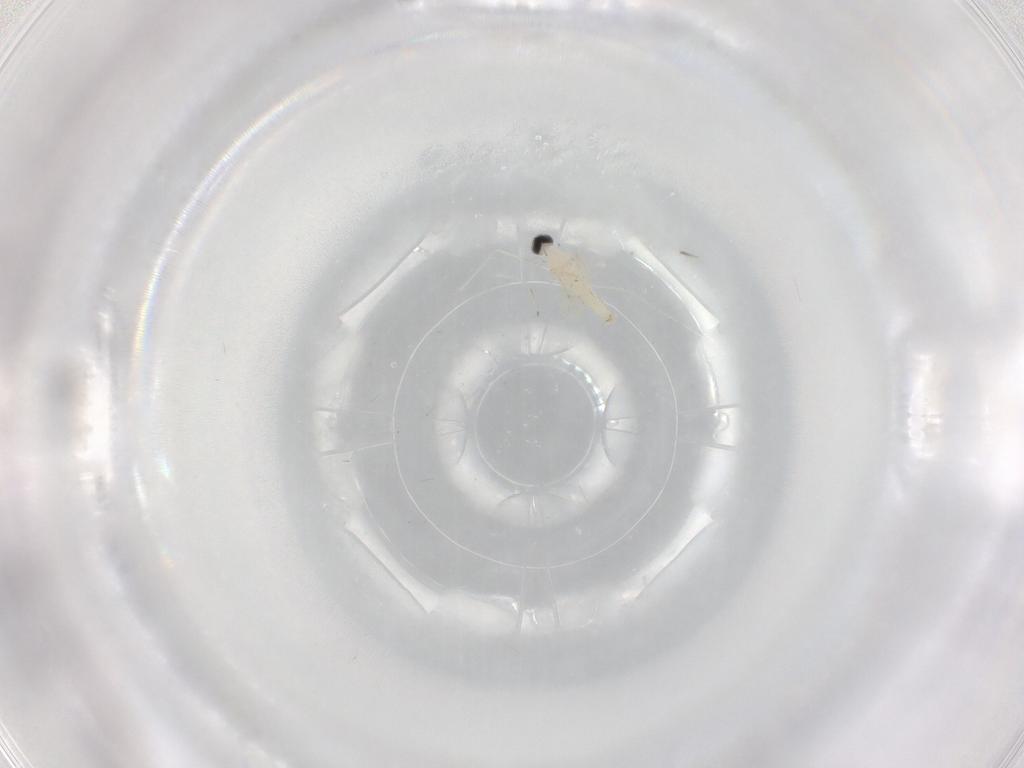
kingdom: Animalia
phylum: Arthropoda
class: Insecta
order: Diptera
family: Cecidomyiidae
